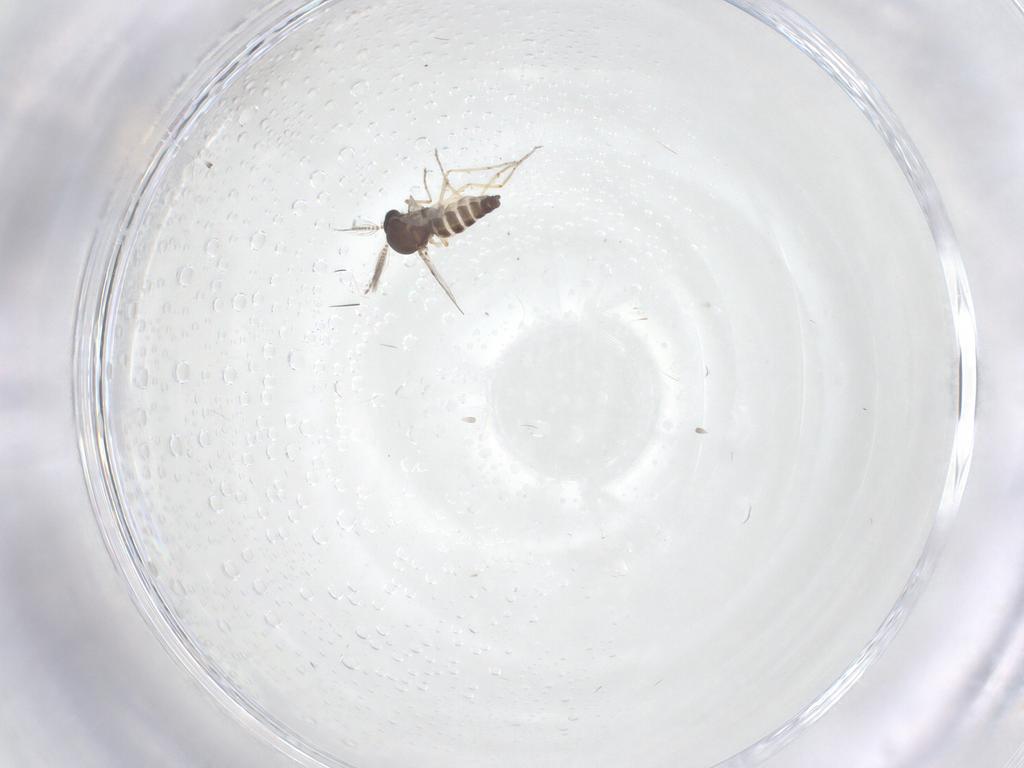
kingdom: Animalia
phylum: Arthropoda
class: Insecta
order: Diptera
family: Ceratopogonidae
